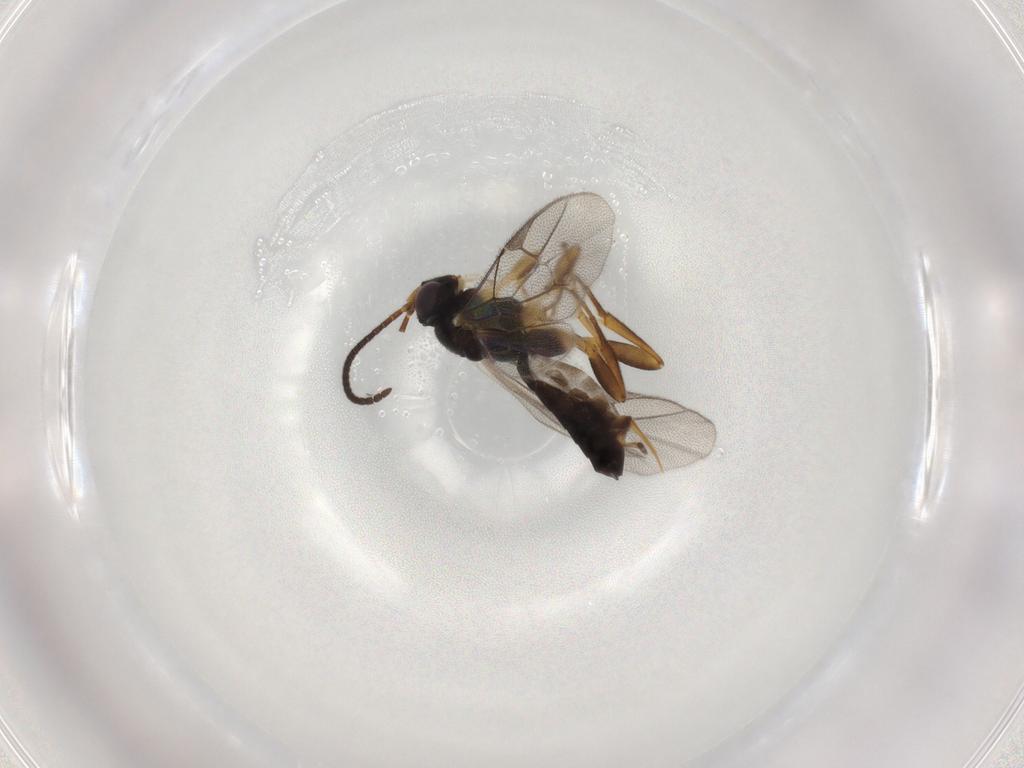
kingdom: Animalia
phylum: Arthropoda
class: Insecta
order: Hymenoptera
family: Ichneumonidae
